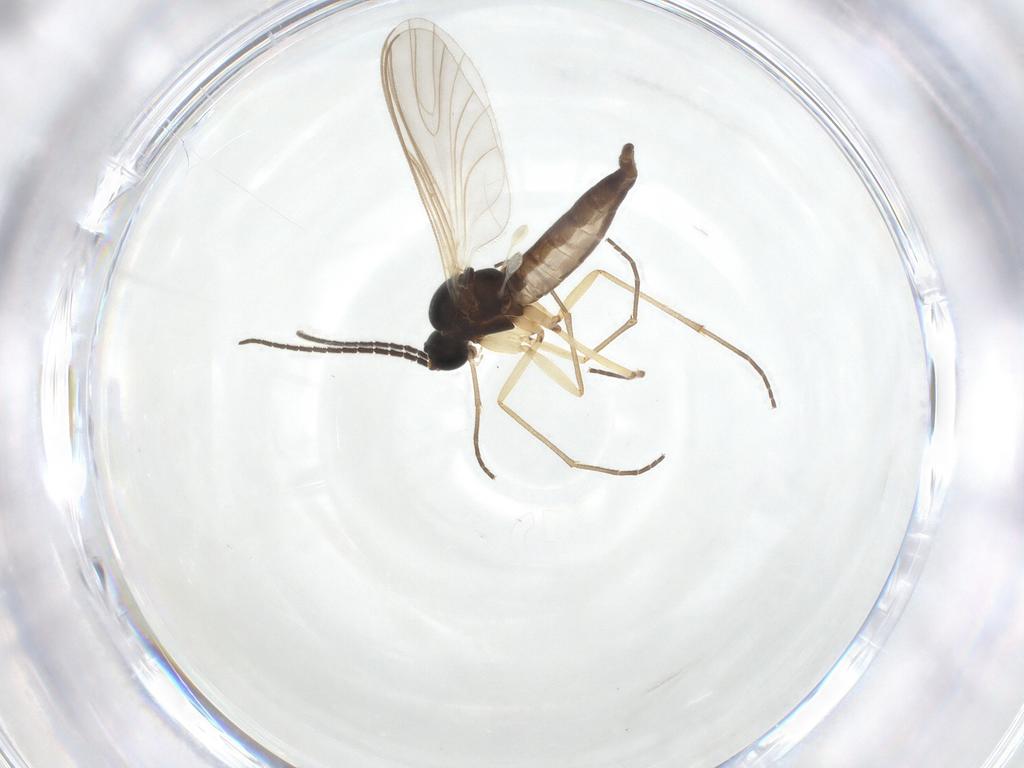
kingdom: Animalia
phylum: Arthropoda
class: Insecta
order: Diptera
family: Sciaridae
